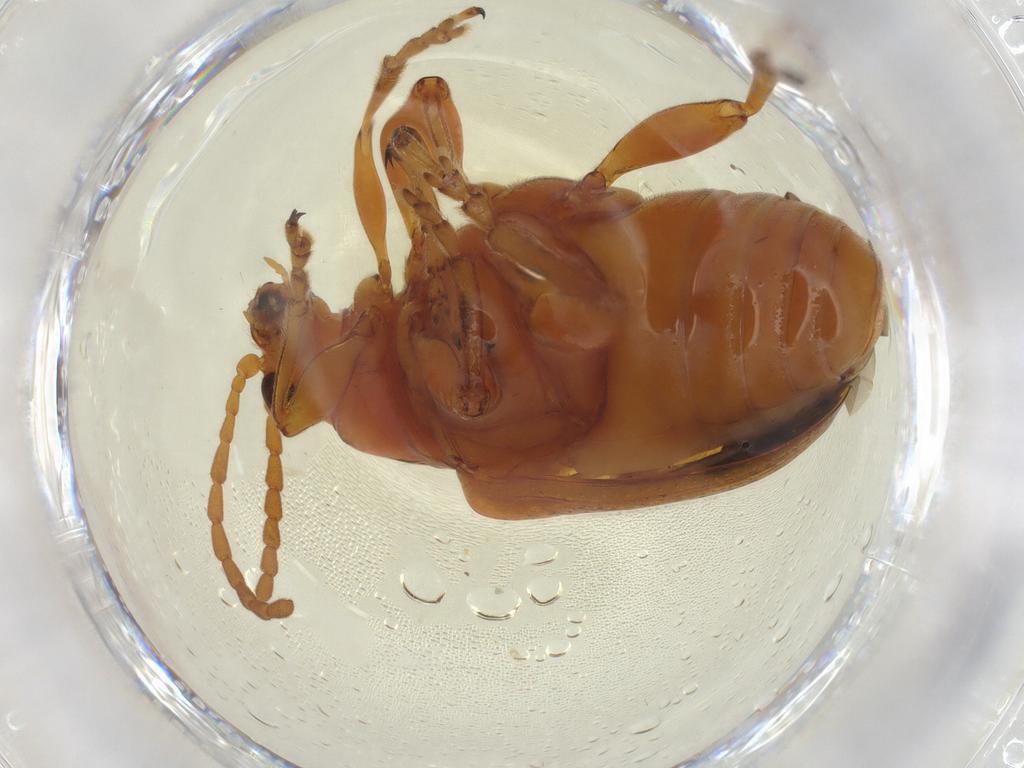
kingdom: Animalia
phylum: Arthropoda
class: Insecta
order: Coleoptera
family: Chrysomelidae
